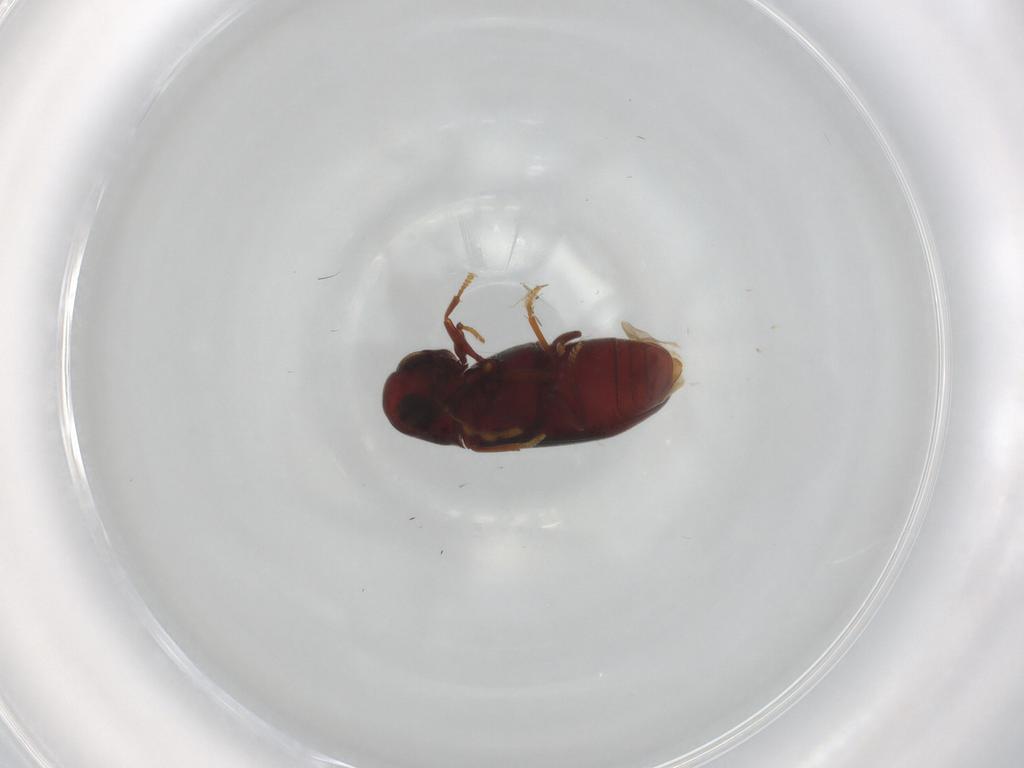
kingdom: Animalia
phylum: Arthropoda
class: Insecta
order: Coleoptera
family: Ptinidae
